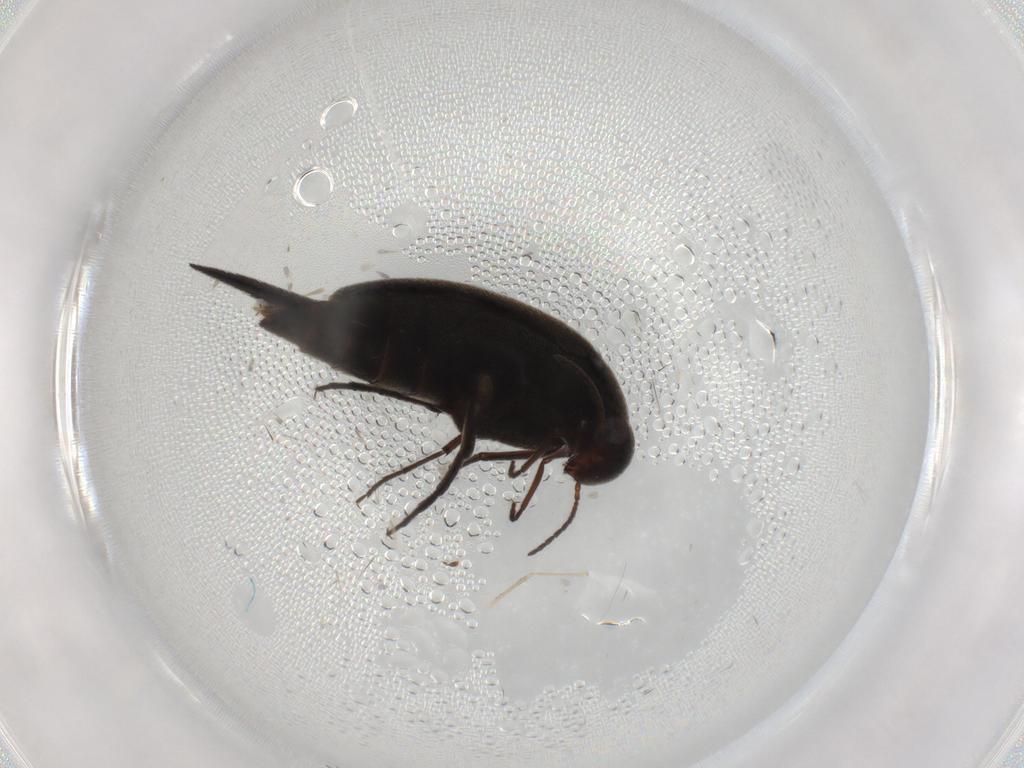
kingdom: Animalia
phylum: Arthropoda
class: Insecta
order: Coleoptera
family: Mordellidae
